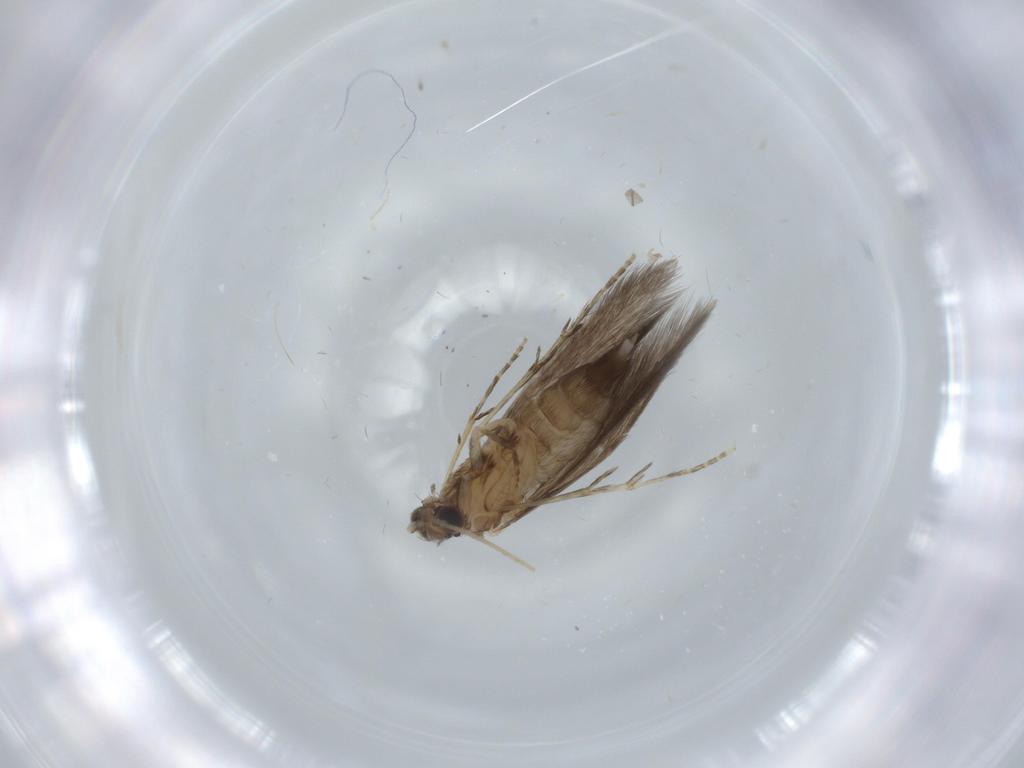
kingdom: Animalia
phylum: Arthropoda
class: Insecta
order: Trichoptera
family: Hydroptilidae
